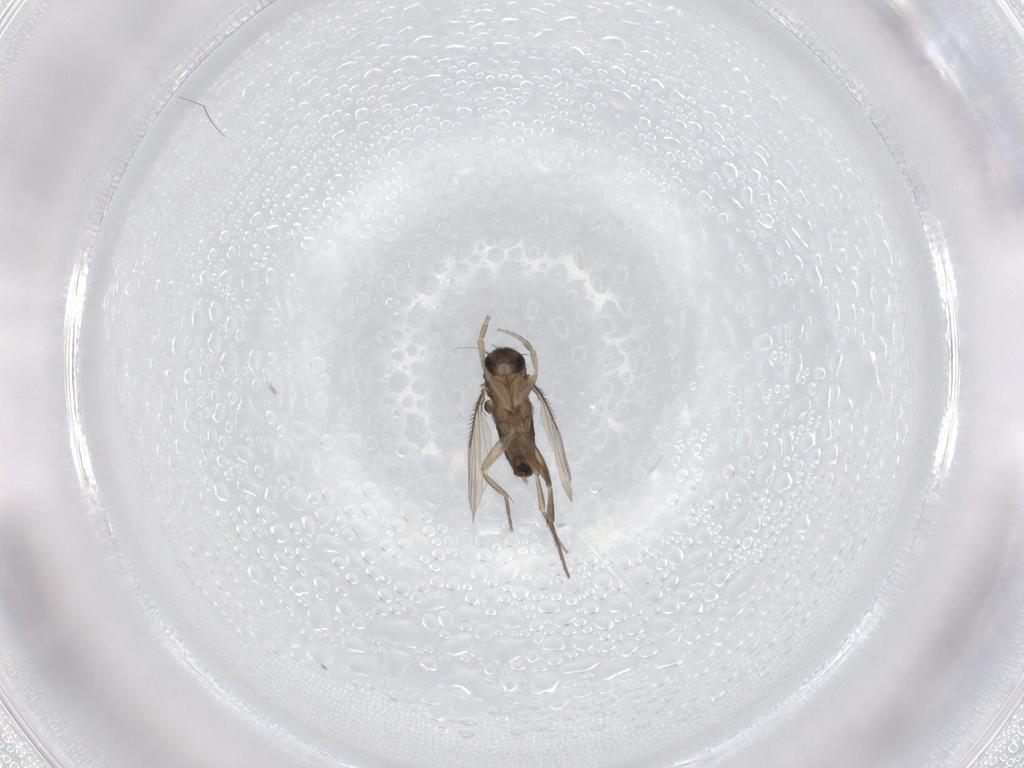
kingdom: Animalia
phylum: Arthropoda
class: Insecta
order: Diptera
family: Phoridae
